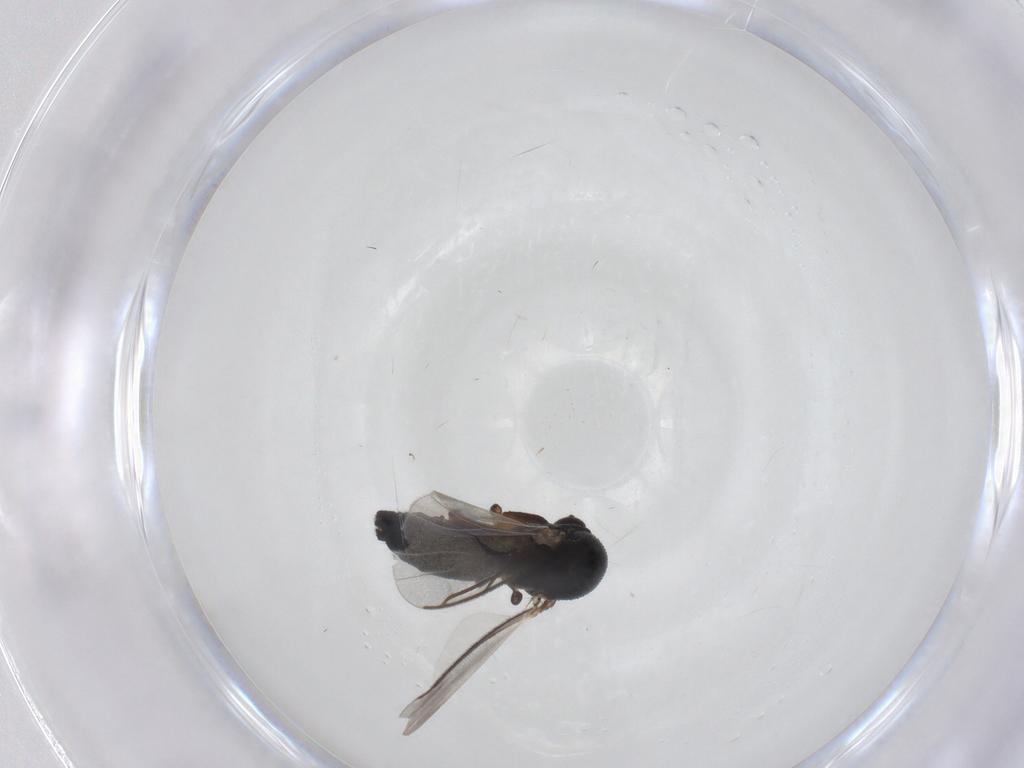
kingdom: Animalia
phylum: Arthropoda
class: Insecta
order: Diptera
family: Mycetophilidae
